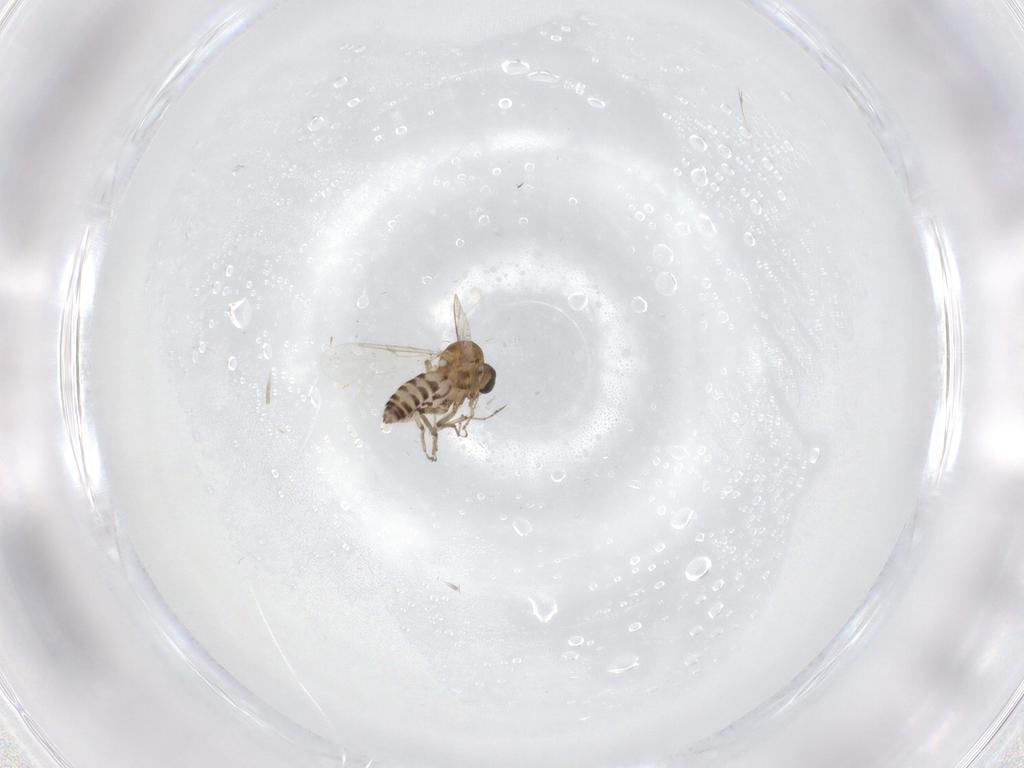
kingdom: Animalia
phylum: Arthropoda
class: Insecta
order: Diptera
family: Ceratopogonidae
